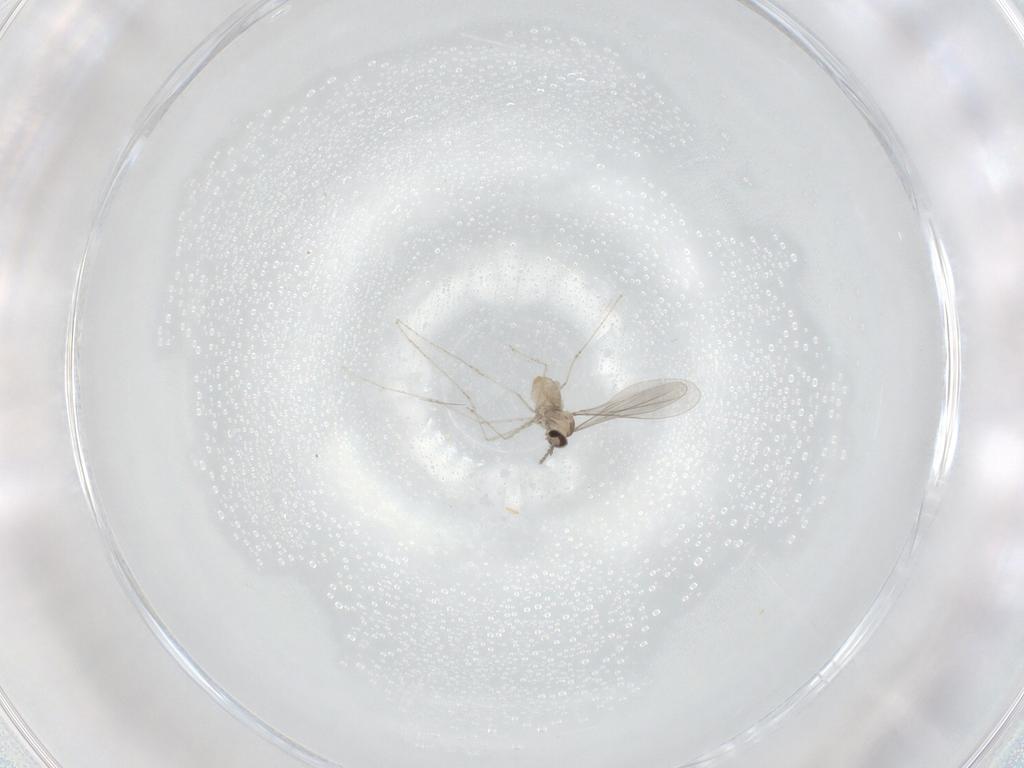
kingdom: Animalia
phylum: Arthropoda
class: Insecta
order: Diptera
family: Cecidomyiidae
